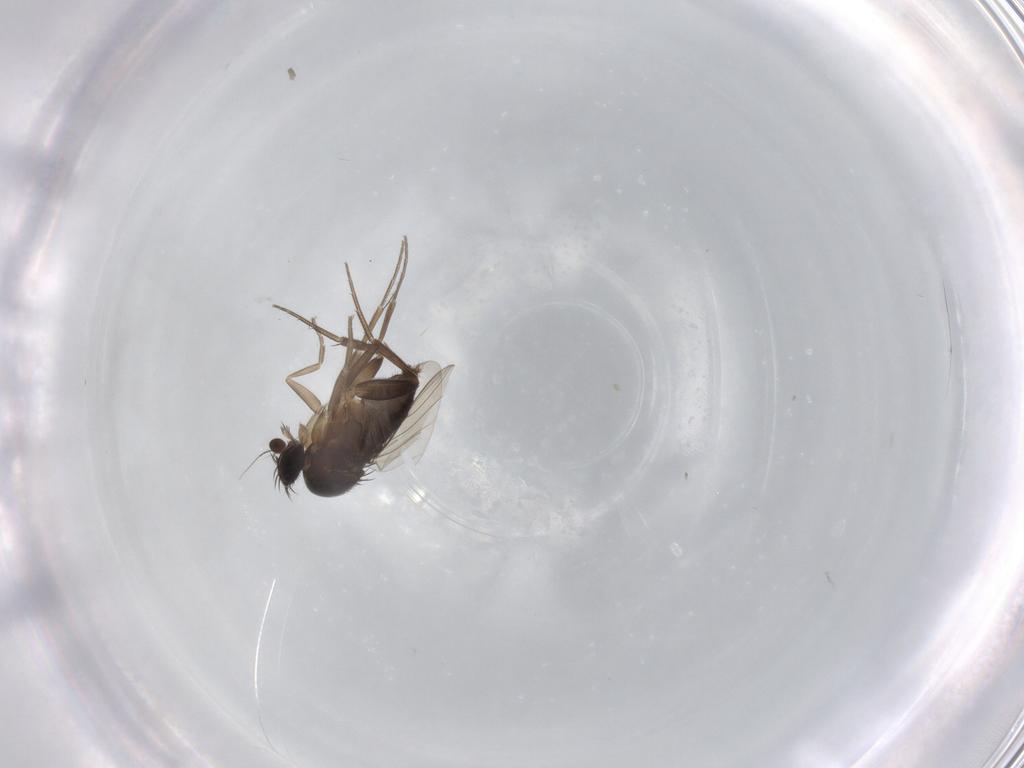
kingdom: Animalia
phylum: Arthropoda
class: Insecta
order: Diptera
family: Phoridae
